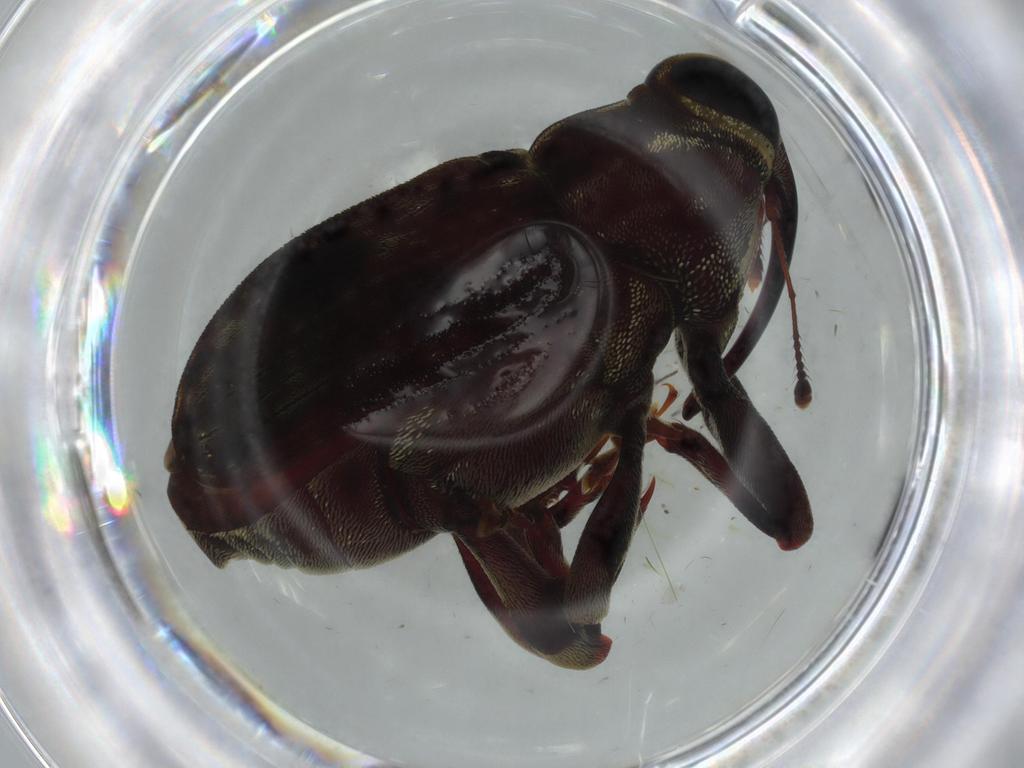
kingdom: Animalia
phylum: Arthropoda
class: Insecta
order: Coleoptera
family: Curculionidae
